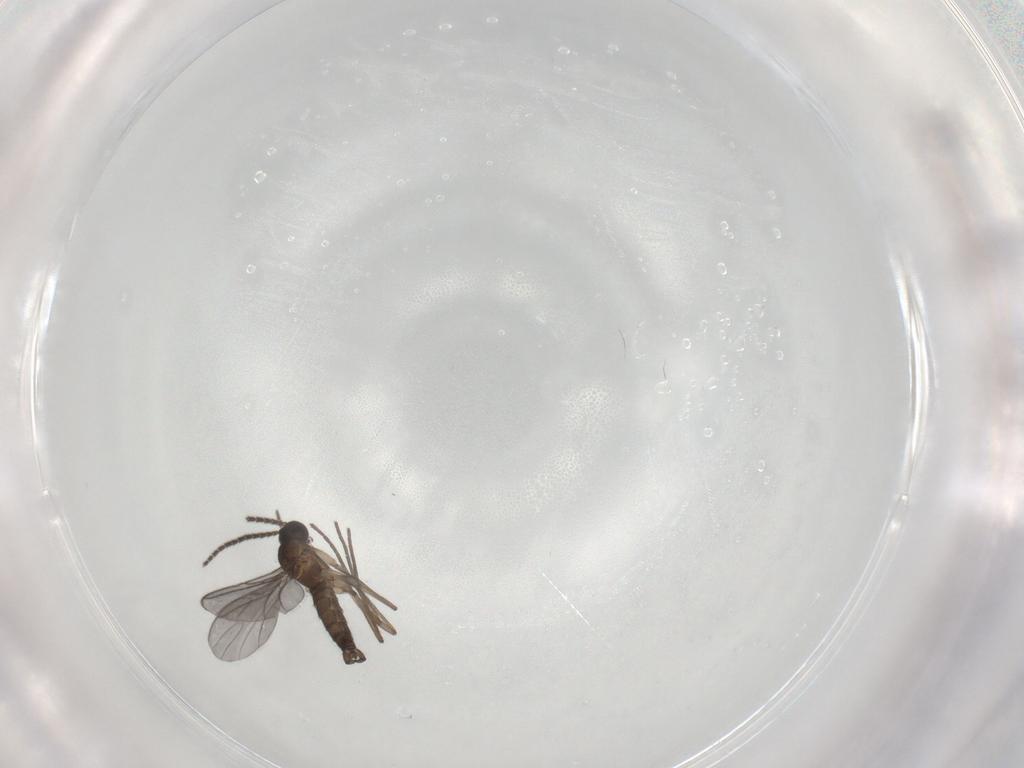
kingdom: Animalia
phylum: Arthropoda
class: Insecta
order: Diptera
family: Sciaridae
